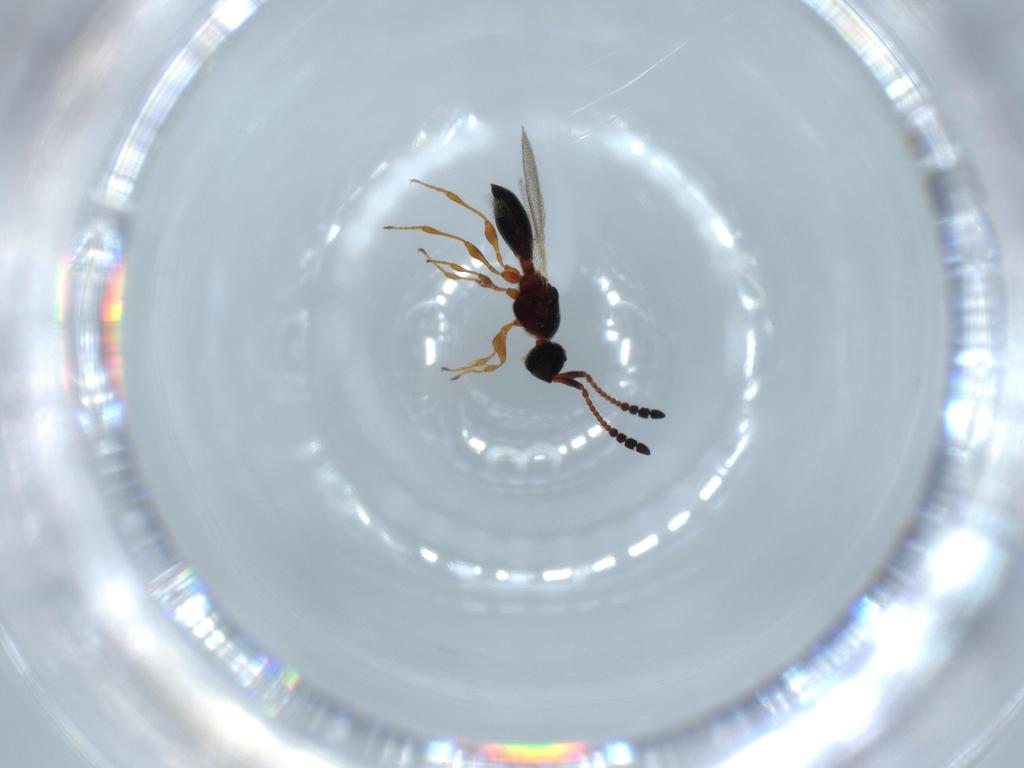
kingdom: Animalia
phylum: Arthropoda
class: Insecta
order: Hymenoptera
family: Diapriidae
